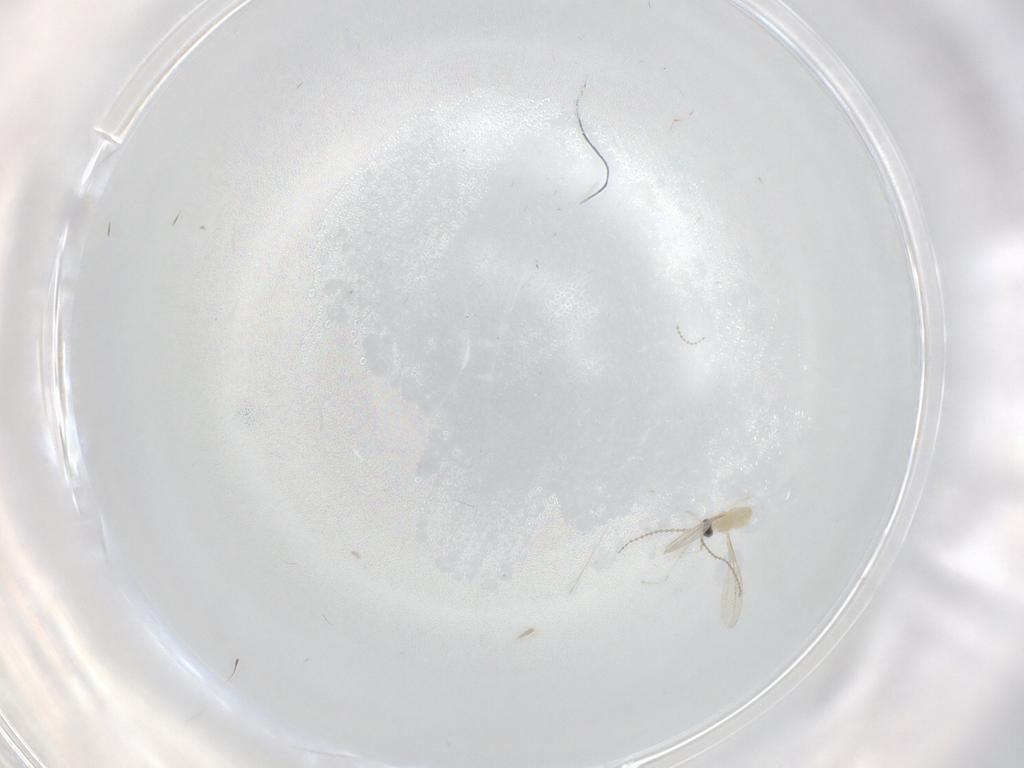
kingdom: Animalia
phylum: Arthropoda
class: Insecta
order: Diptera
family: Cecidomyiidae
